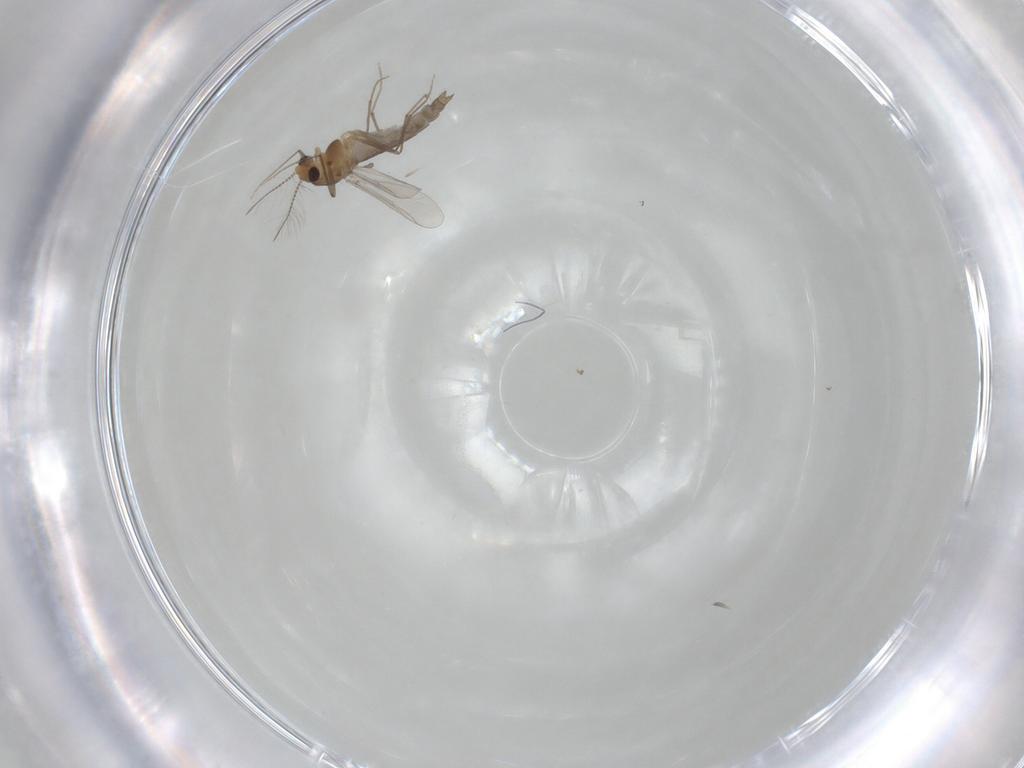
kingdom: Animalia
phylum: Arthropoda
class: Insecta
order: Diptera
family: Chironomidae
